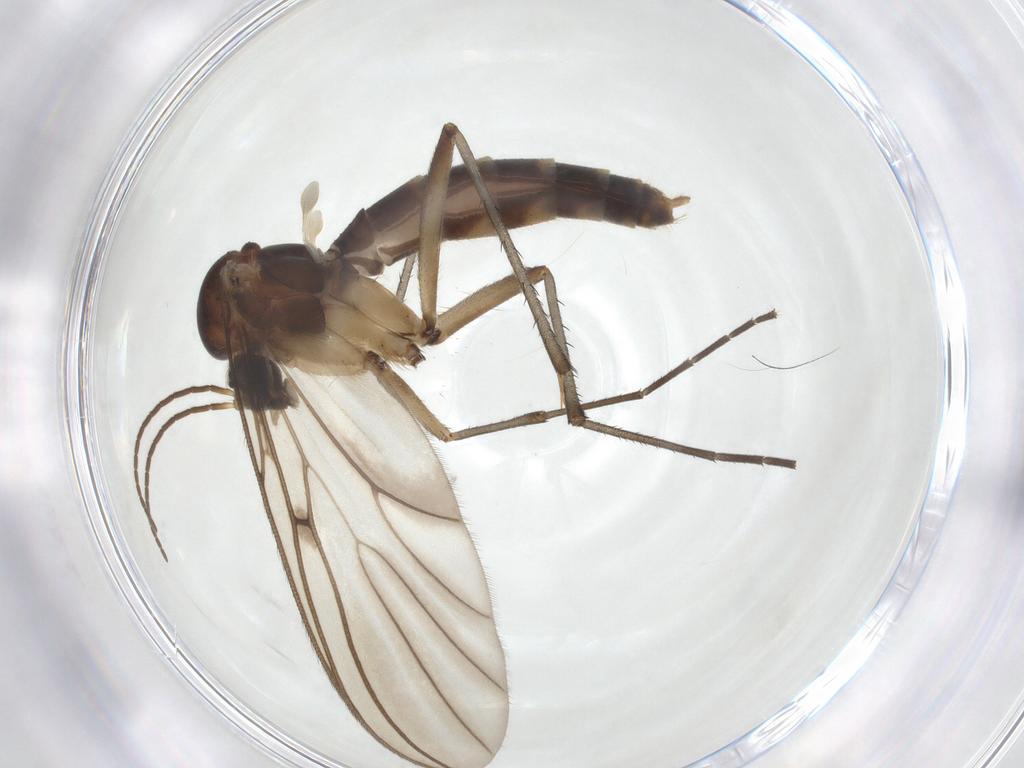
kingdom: Animalia
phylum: Arthropoda
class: Insecta
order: Diptera
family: Mycetophilidae
